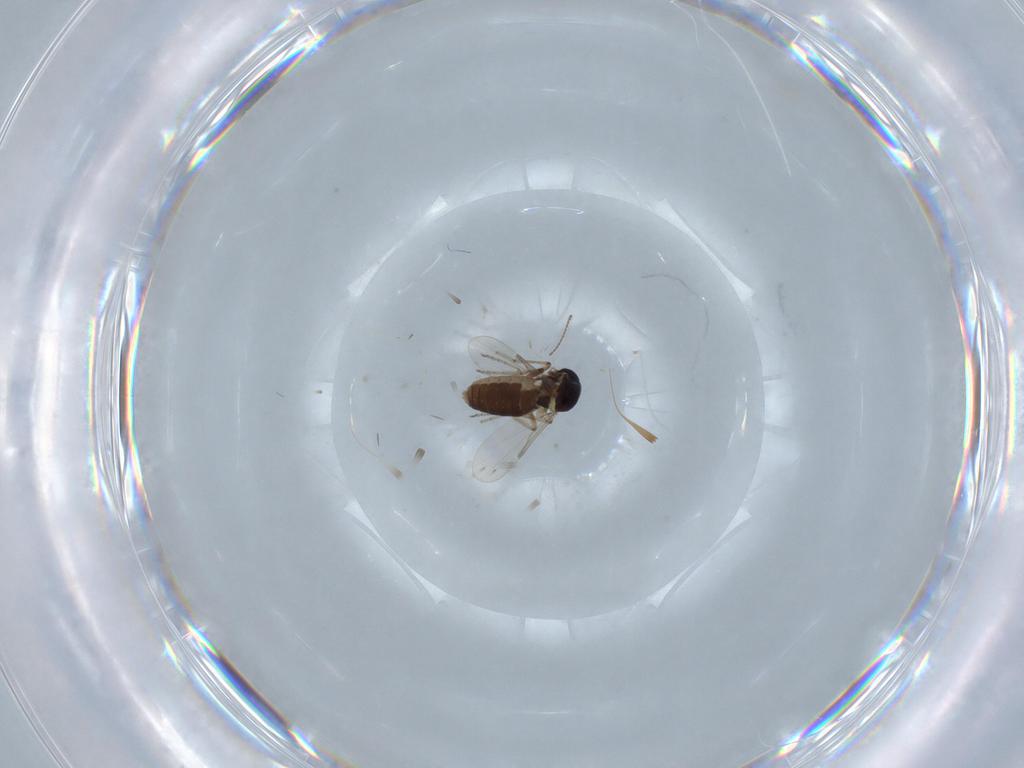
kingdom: Animalia
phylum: Arthropoda
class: Insecta
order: Diptera
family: Ceratopogonidae
